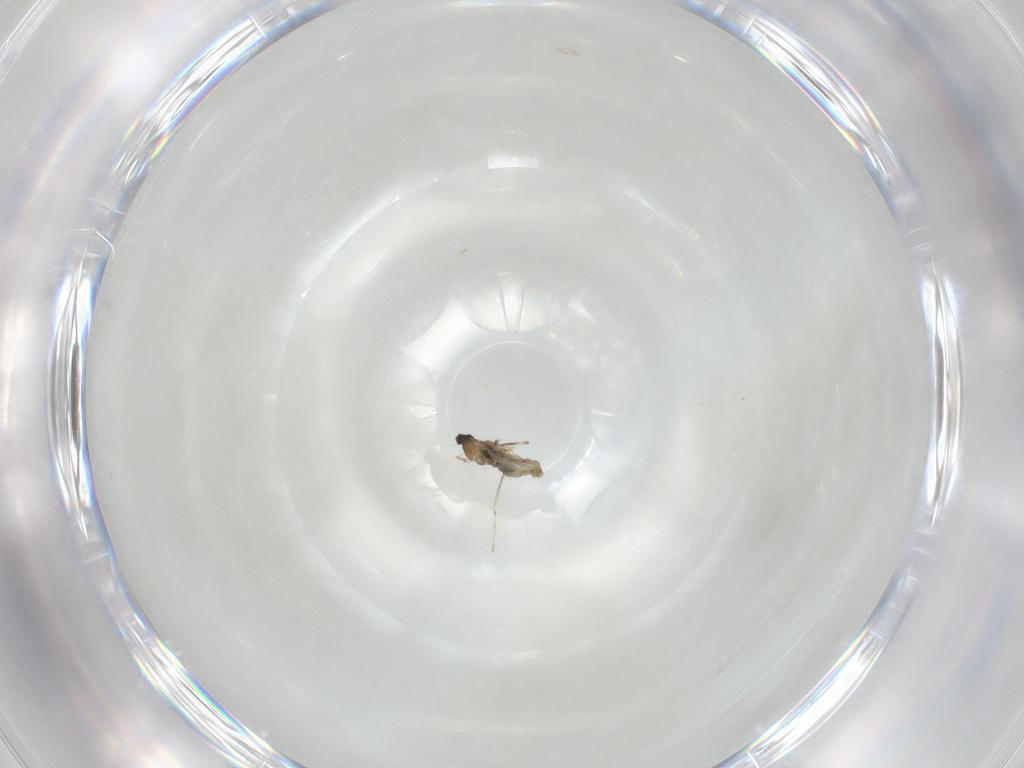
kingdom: Animalia
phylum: Arthropoda
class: Insecta
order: Diptera
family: Cecidomyiidae
